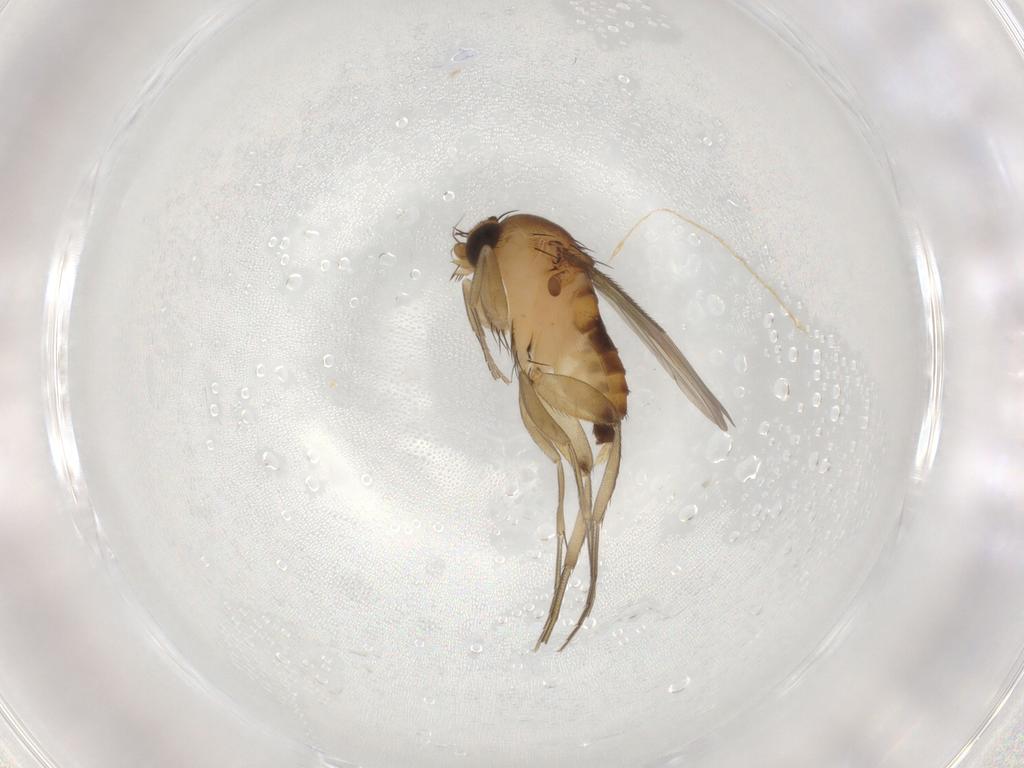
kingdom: Animalia
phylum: Arthropoda
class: Insecta
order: Diptera
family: Phoridae
